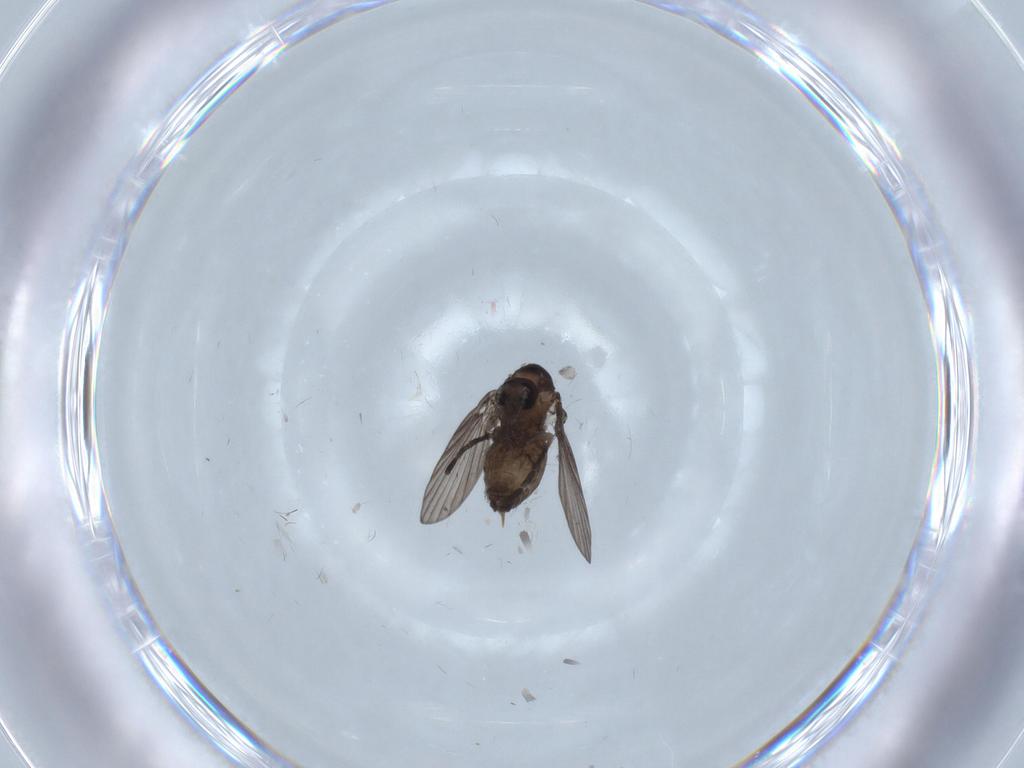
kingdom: Animalia
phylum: Arthropoda
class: Insecta
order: Diptera
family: Psychodidae
